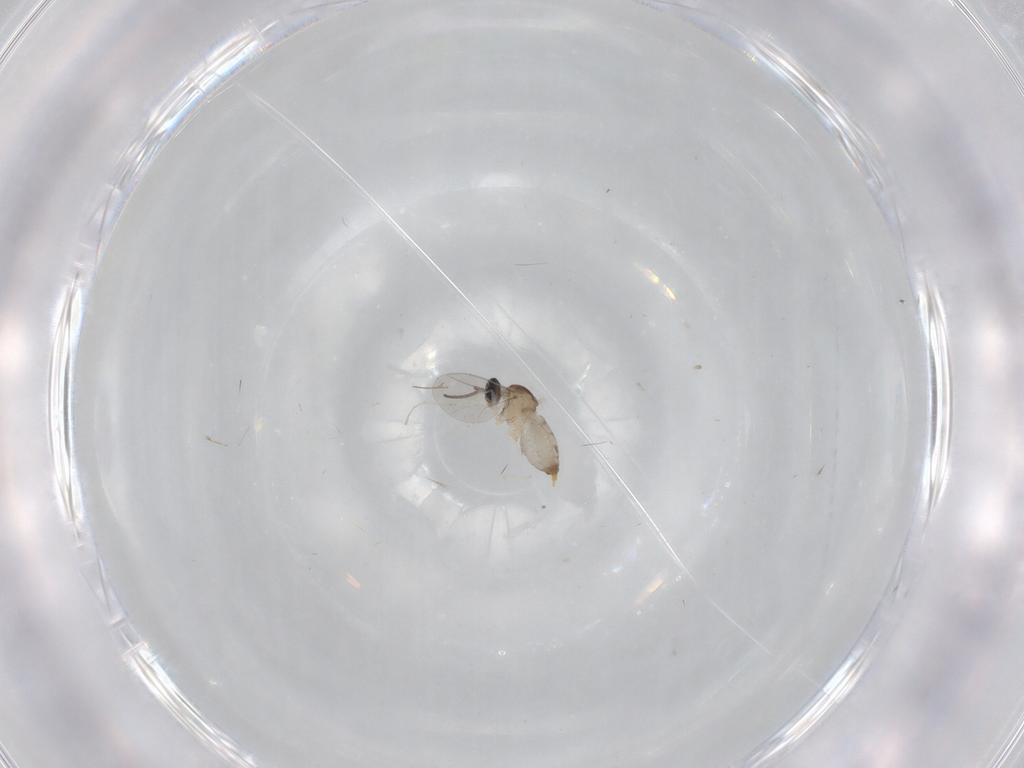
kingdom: Animalia
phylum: Arthropoda
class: Insecta
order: Diptera
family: Cecidomyiidae
